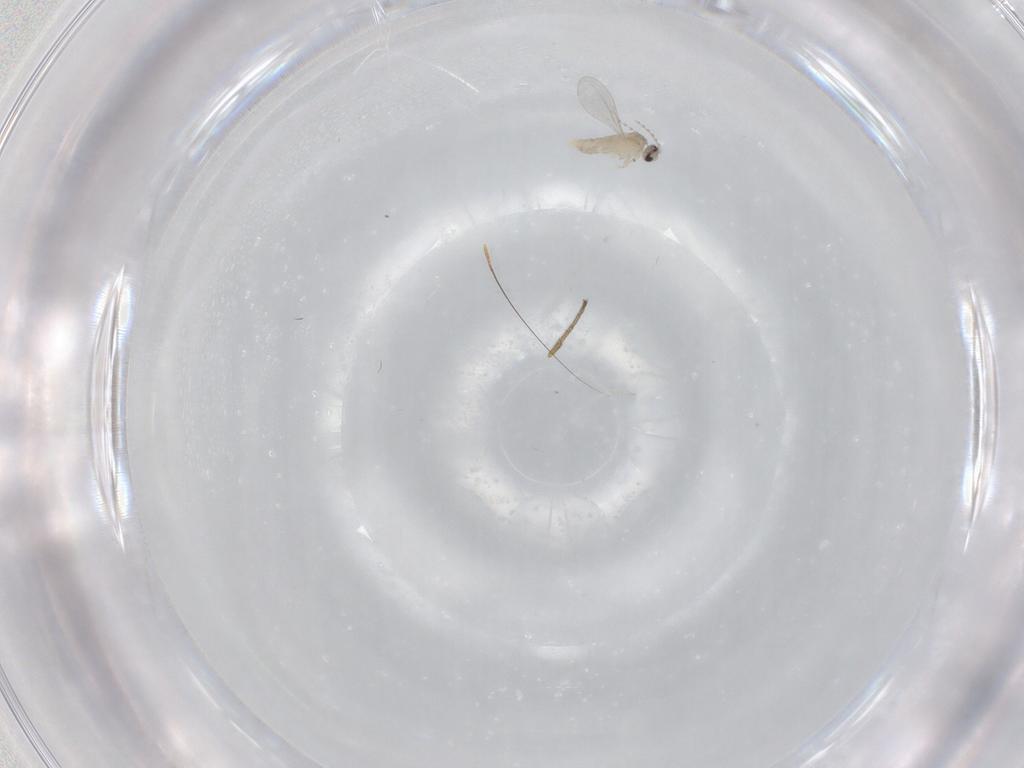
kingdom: Animalia
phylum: Arthropoda
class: Insecta
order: Diptera
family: Cecidomyiidae
